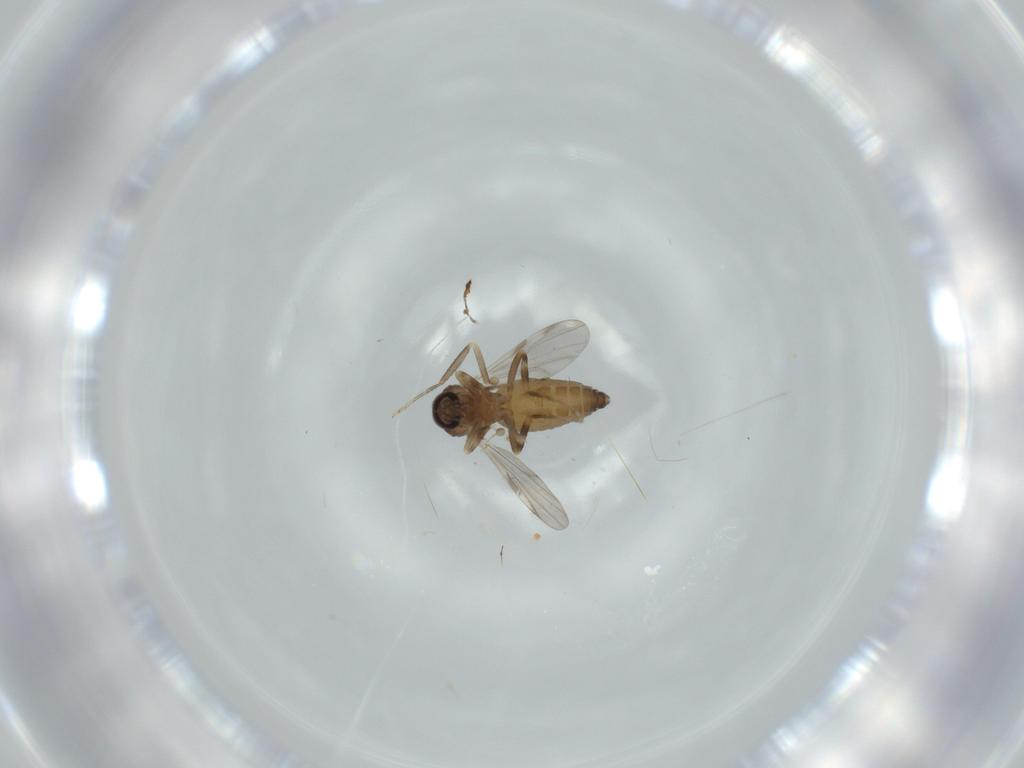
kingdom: Animalia
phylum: Arthropoda
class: Insecta
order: Diptera
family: Ceratopogonidae
